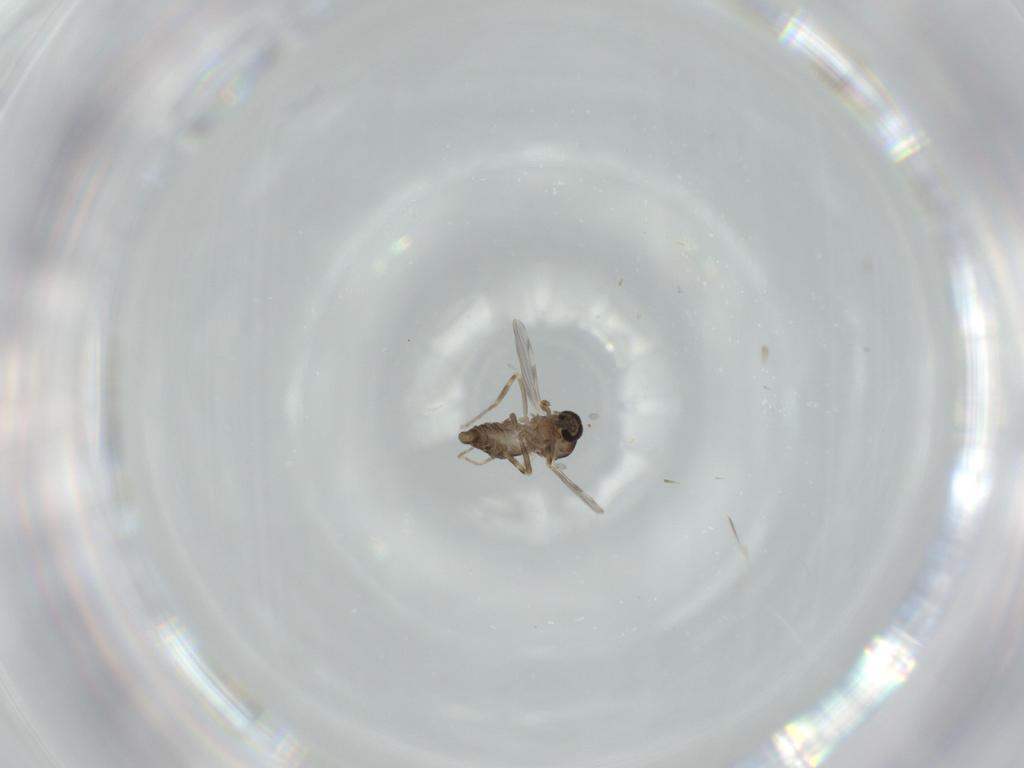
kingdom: Animalia
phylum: Arthropoda
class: Insecta
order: Diptera
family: Ceratopogonidae
